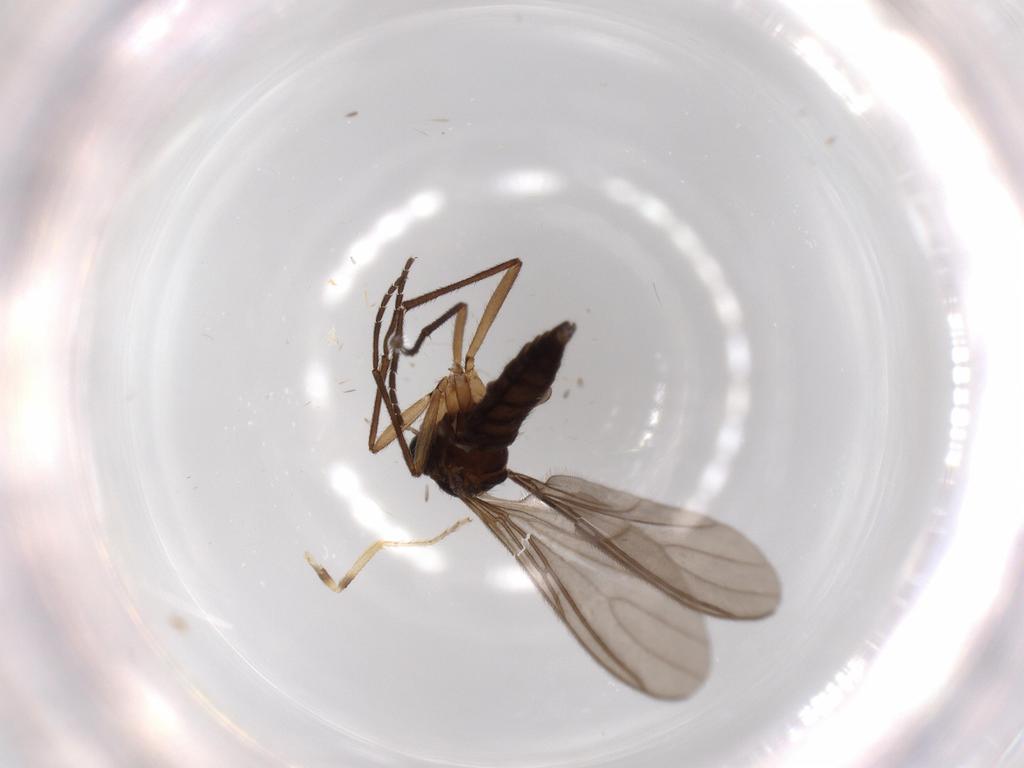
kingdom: Animalia
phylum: Arthropoda
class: Insecta
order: Diptera
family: Ceratopogonidae
